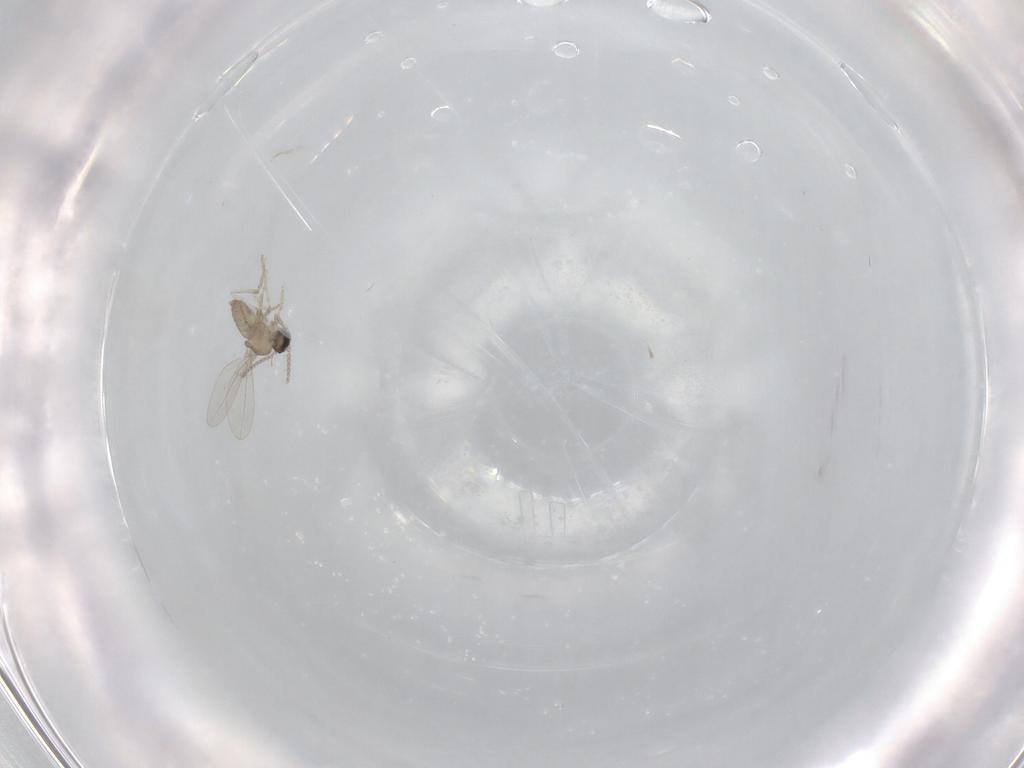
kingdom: Animalia
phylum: Arthropoda
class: Insecta
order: Diptera
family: Cecidomyiidae
